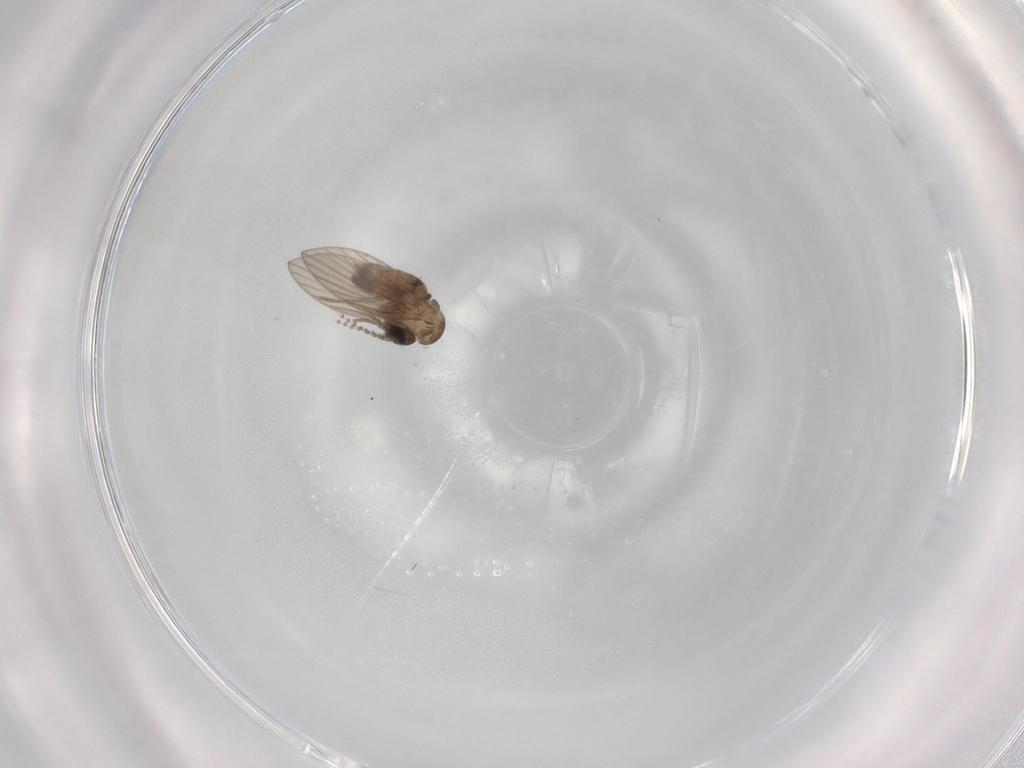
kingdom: Animalia
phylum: Arthropoda
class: Insecta
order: Diptera
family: Psychodidae
